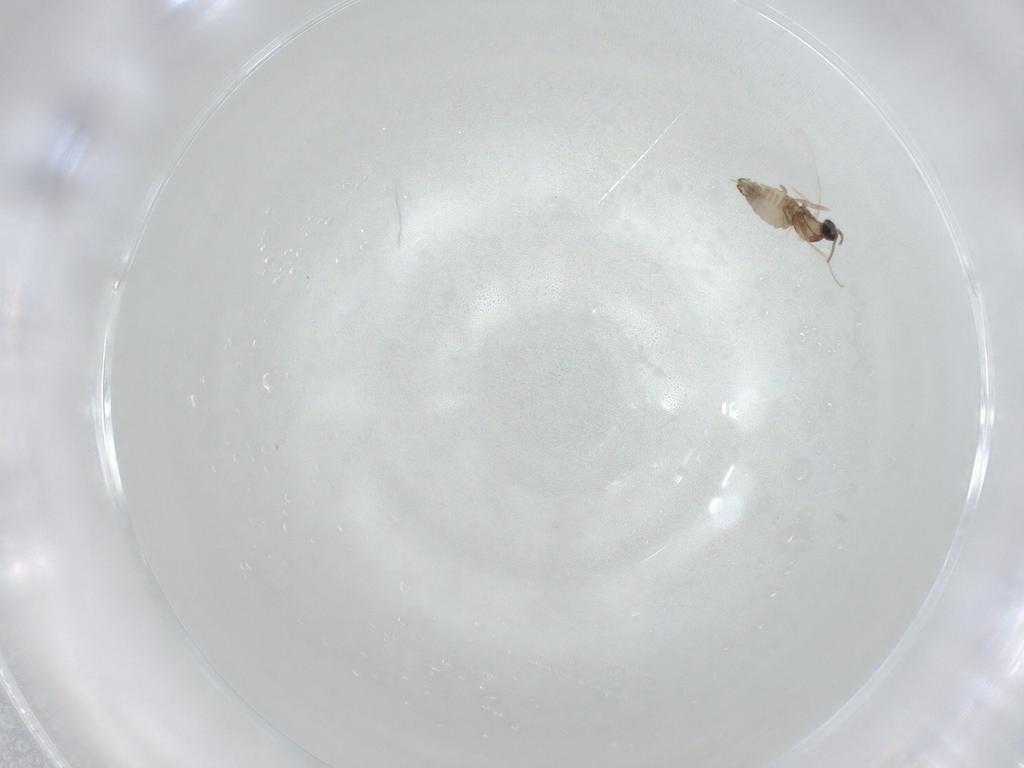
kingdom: Animalia
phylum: Arthropoda
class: Insecta
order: Diptera
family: Cecidomyiidae
